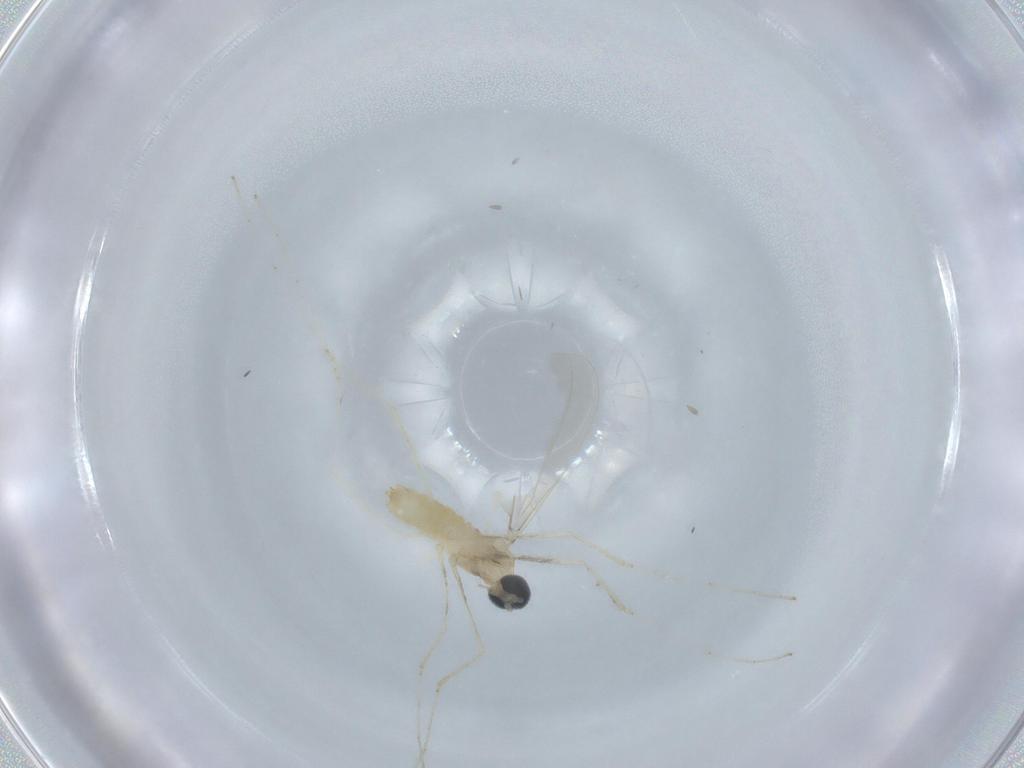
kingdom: Animalia
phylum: Arthropoda
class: Insecta
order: Diptera
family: Cecidomyiidae
